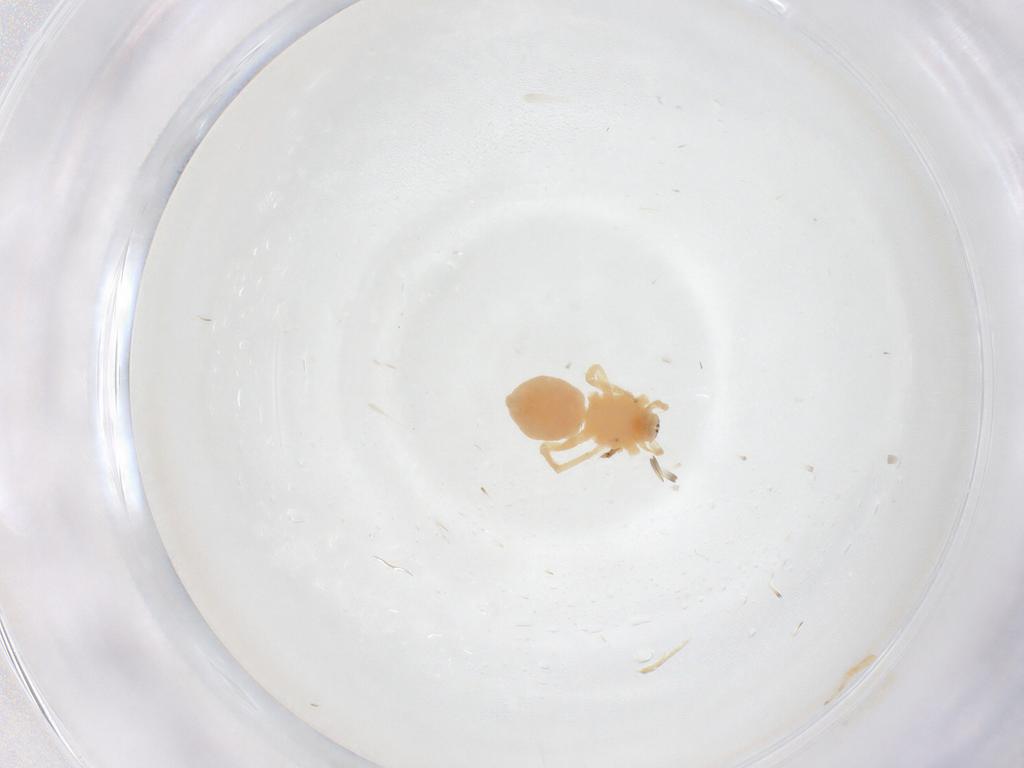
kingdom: Animalia
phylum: Arthropoda
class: Arachnida
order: Araneae
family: Anyphaenidae
